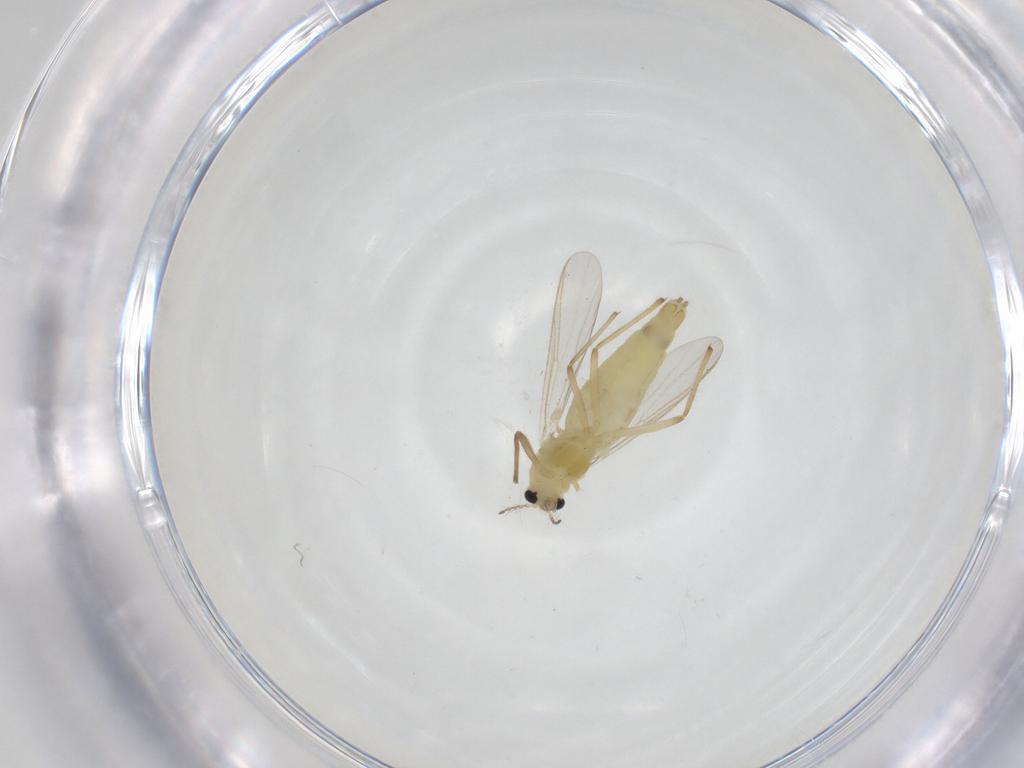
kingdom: Animalia
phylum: Arthropoda
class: Insecta
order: Diptera
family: Chironomidae
